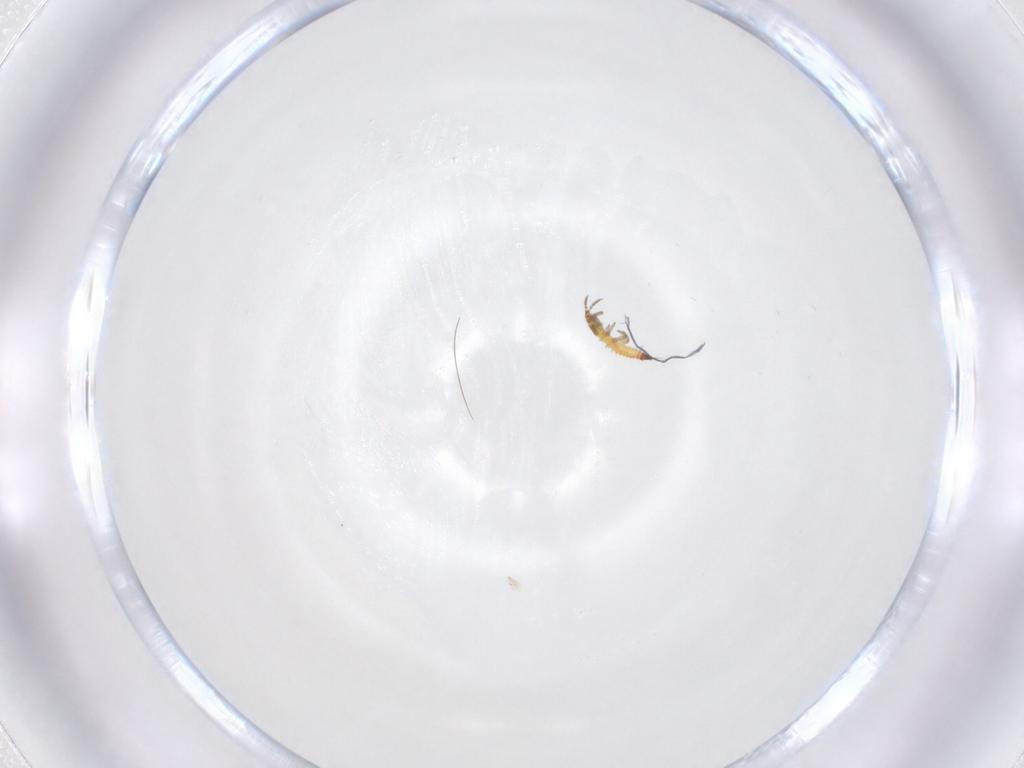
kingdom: Animalia
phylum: Arthropoda
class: Insecta
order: Thysanoptera
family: Phlaeothripidae
